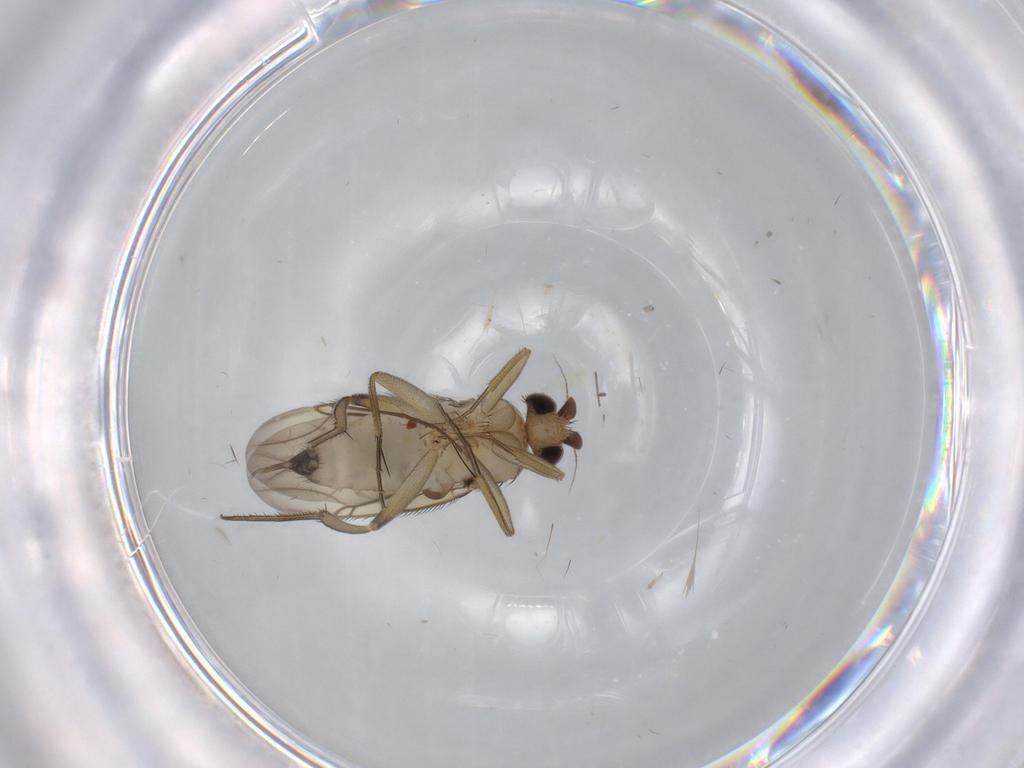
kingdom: Animalia
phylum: Arthropoda
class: Insecta
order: Diptera
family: Phoridae
